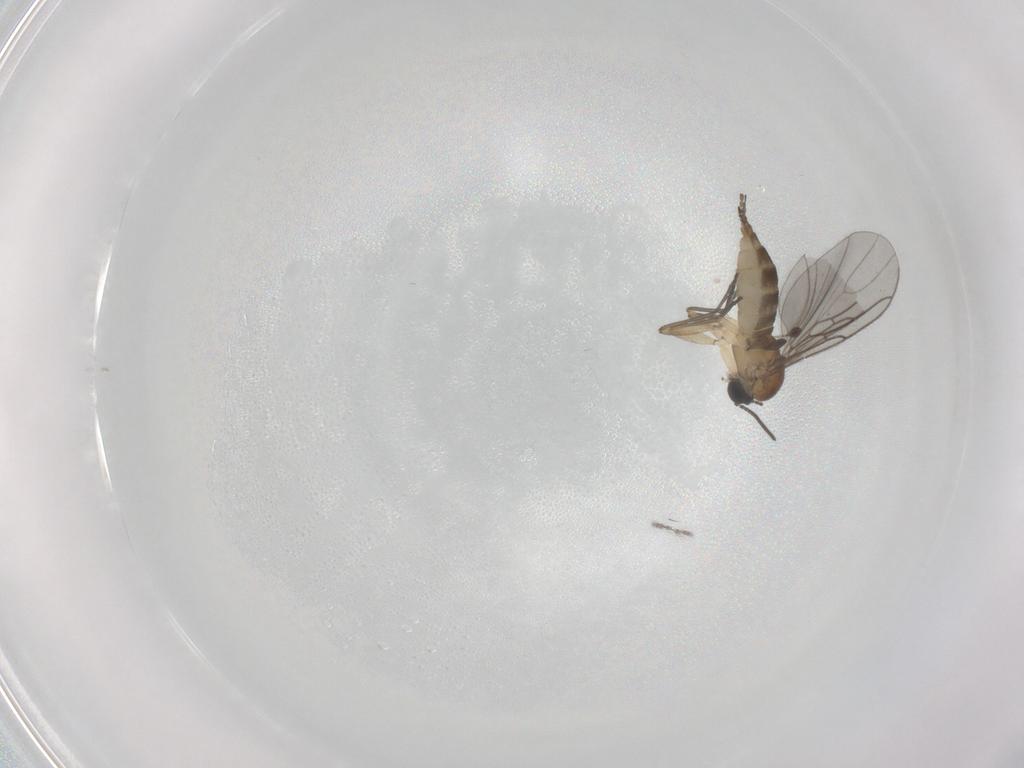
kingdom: Animalia
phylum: Arthropoda
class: Insecta
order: Diptera
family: Sciaridae
